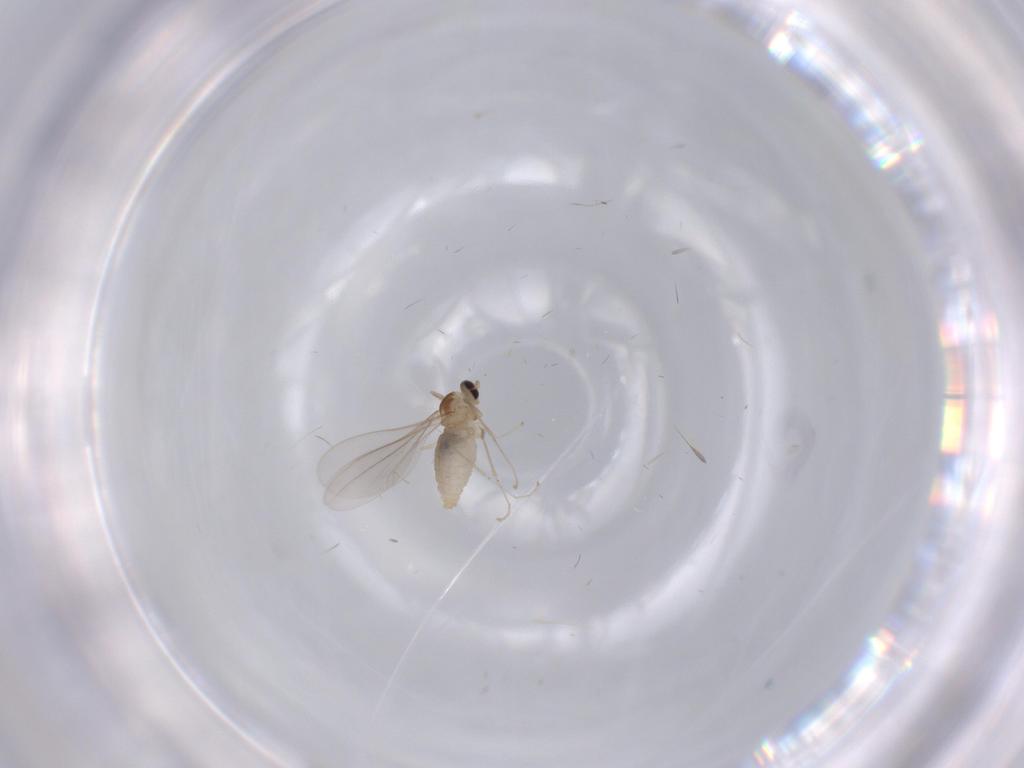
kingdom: Animalia
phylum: Arthropoda
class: Insecta
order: Diptera
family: Cecidomyiidae
